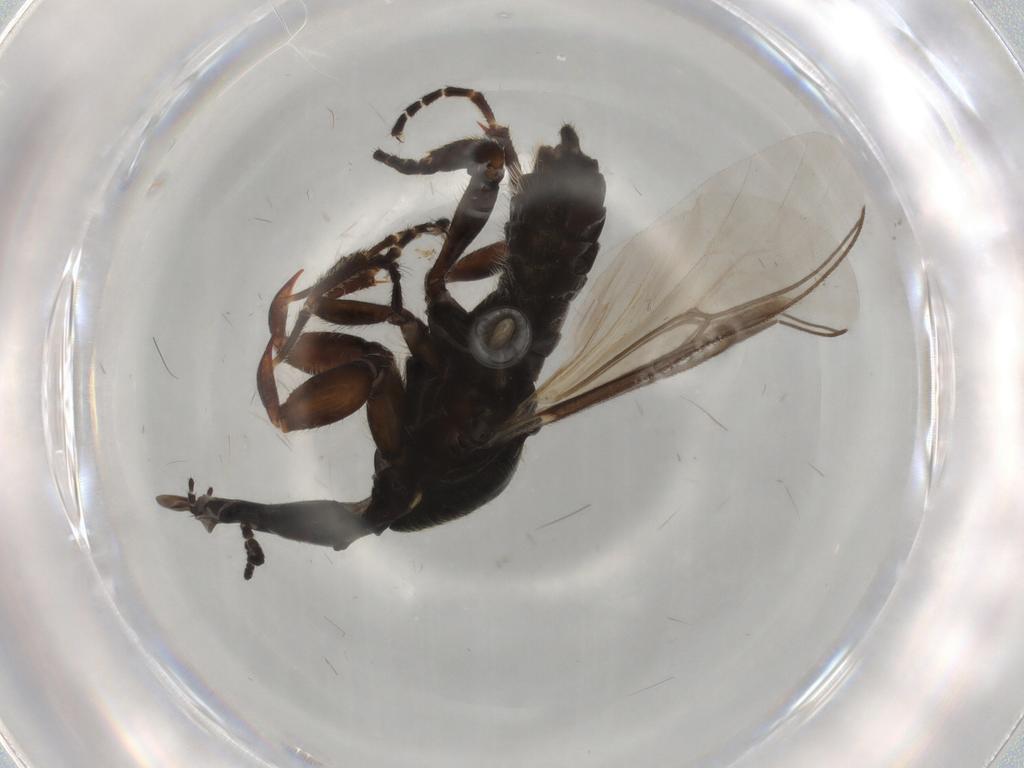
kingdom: Animalia
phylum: Arthropoda
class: Insecta
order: Diptera
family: Bibionidae
